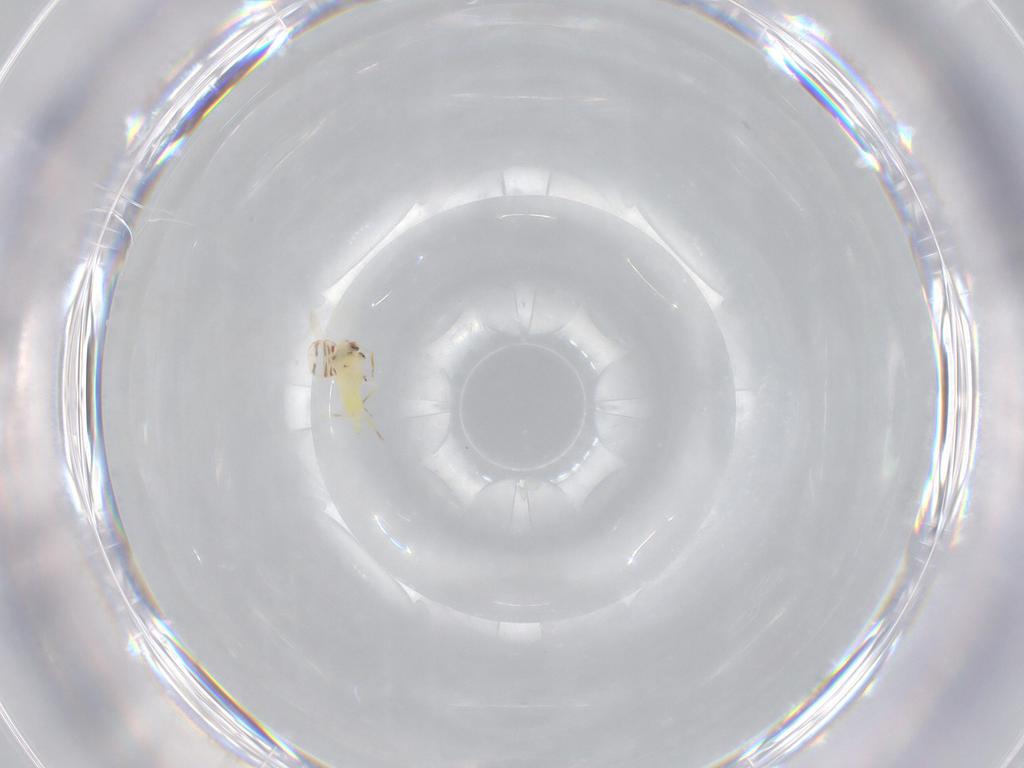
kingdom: Animalia
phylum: Arthropoda
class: Insecta
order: Hemiptera
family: Aleyrodidae
